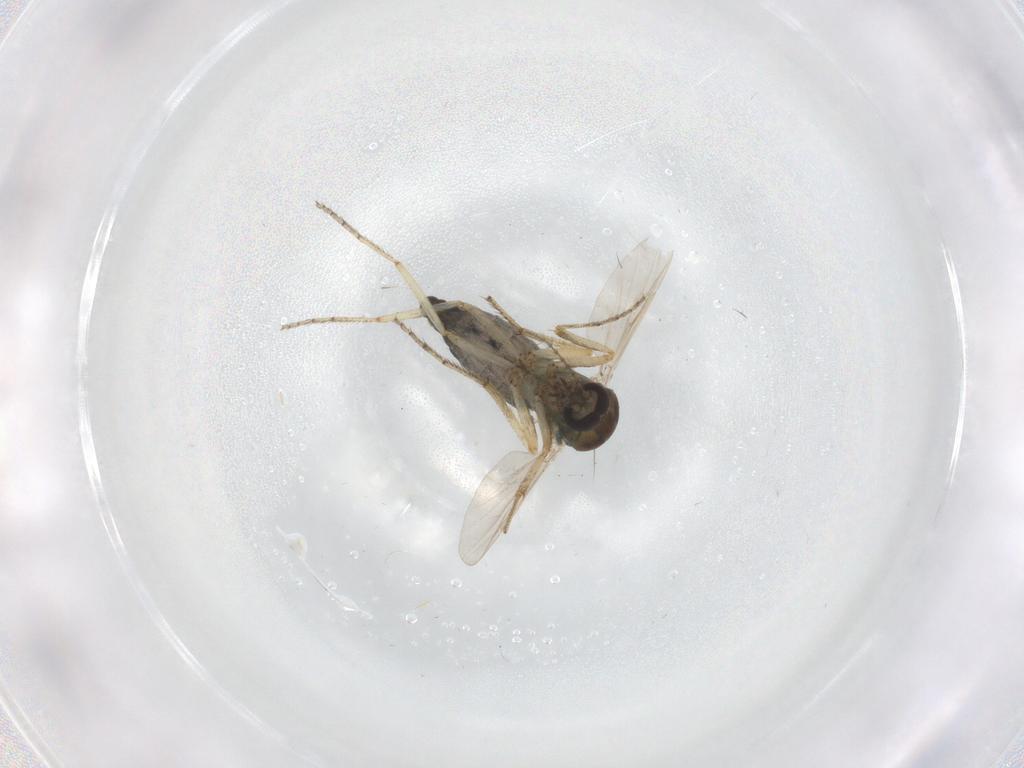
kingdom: Animalia
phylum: Arthropoda
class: Insecta
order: Diptera
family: Ceratopogonidae
